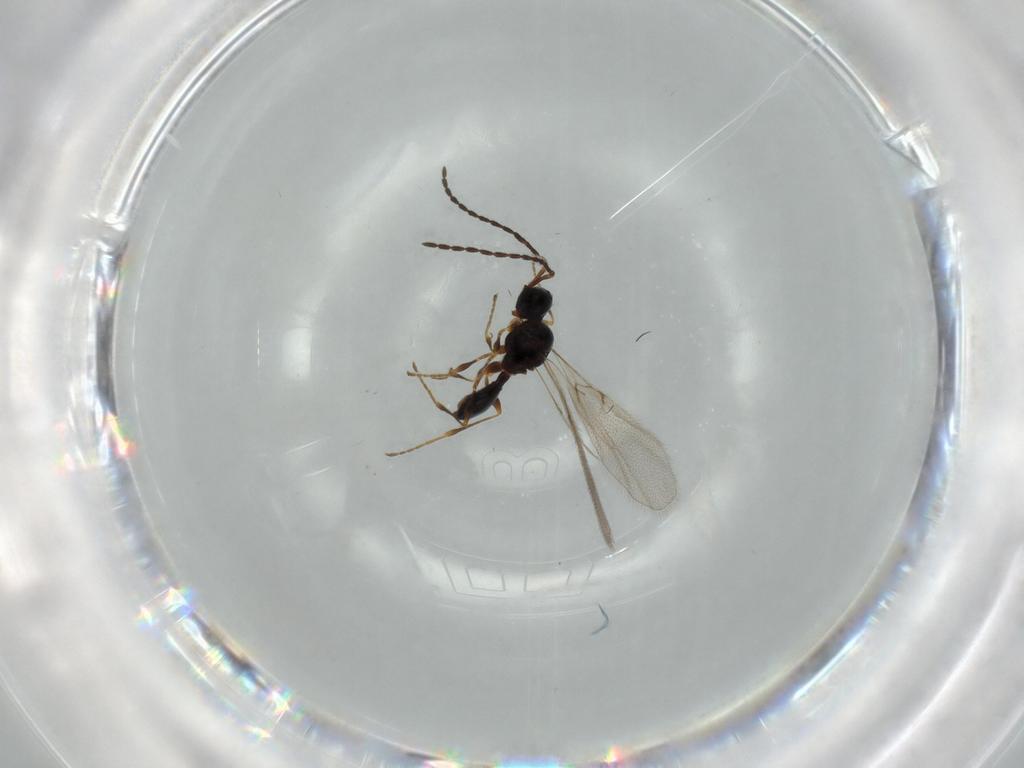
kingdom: Animalia
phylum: Arthropoda
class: Insecta
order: Hymenoptera
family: Diapriidae
